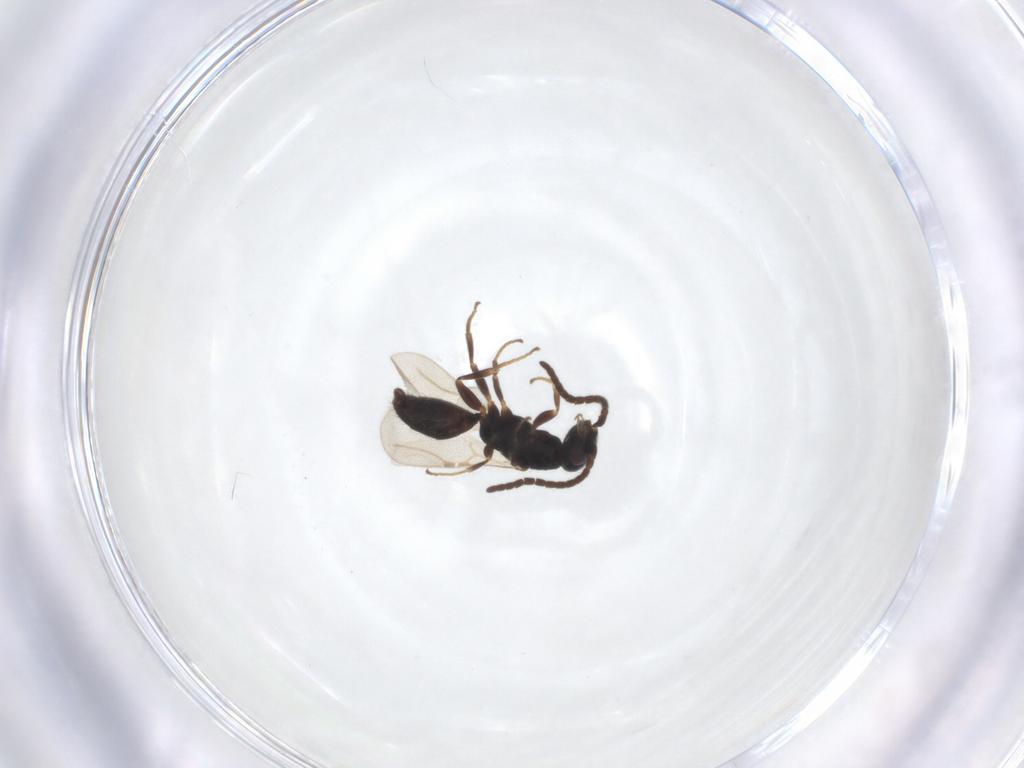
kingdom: Animalia
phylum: Arthropoda
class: Insecta
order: Hymenoptera
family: Bethylidae
